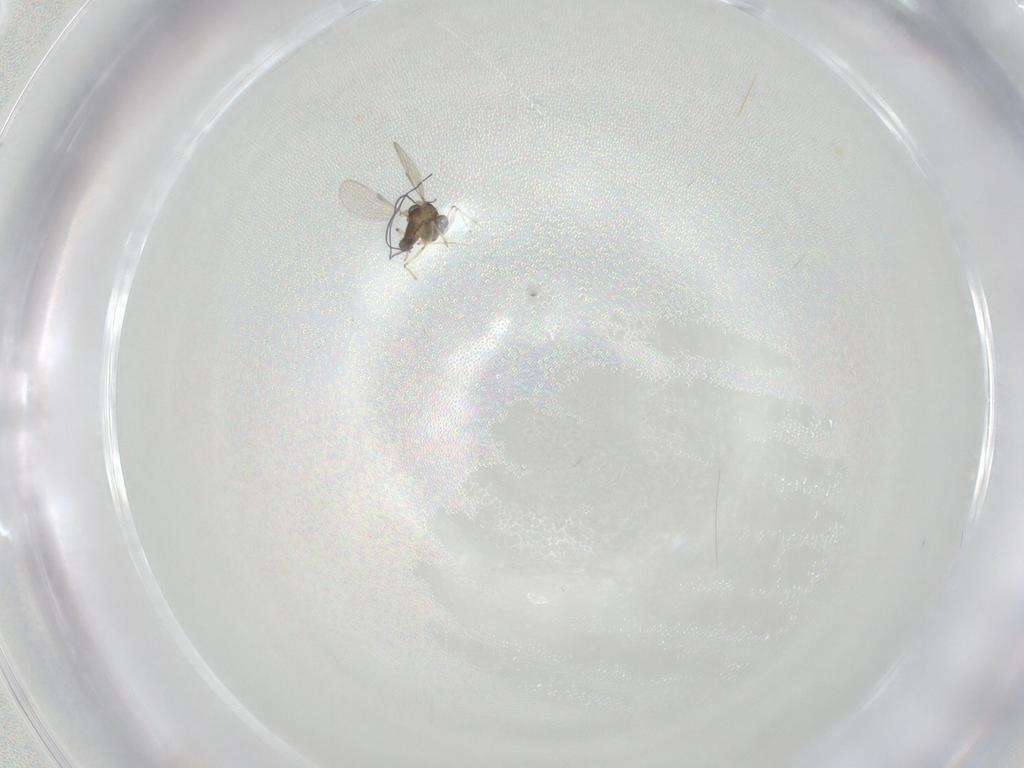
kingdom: Animalia
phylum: Arthropoda
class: Insecta
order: Diptera
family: Chironomidae
